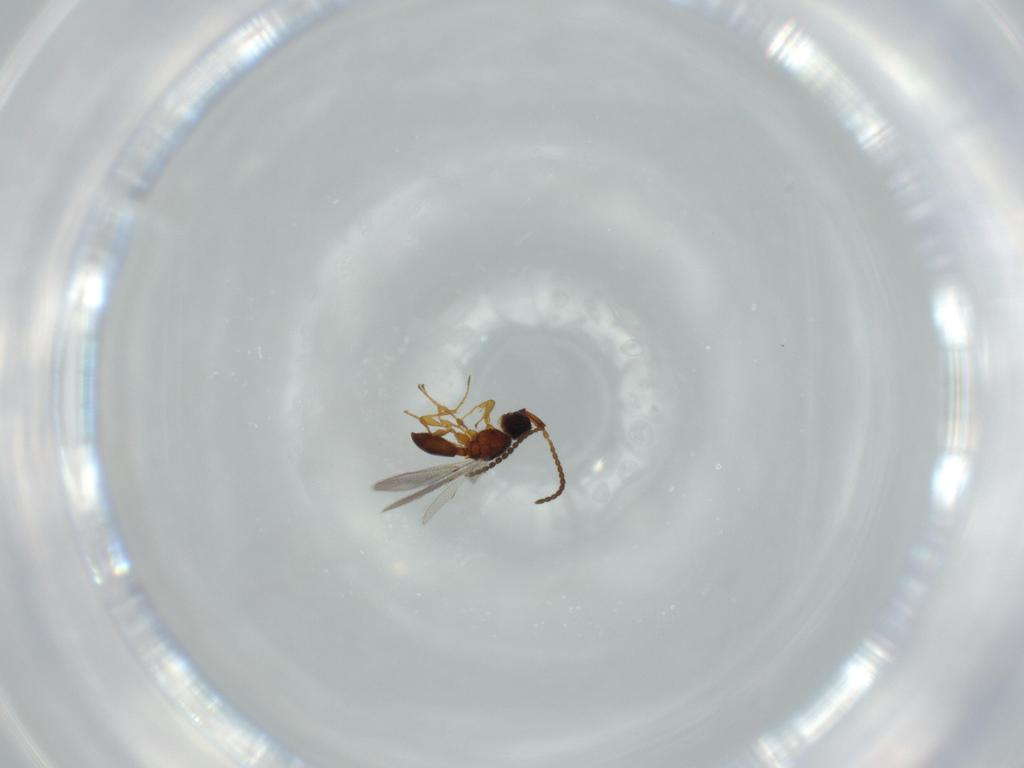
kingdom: Animalia
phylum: Arthropoda
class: Insecta
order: Hymenoptera
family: Diapriidae
